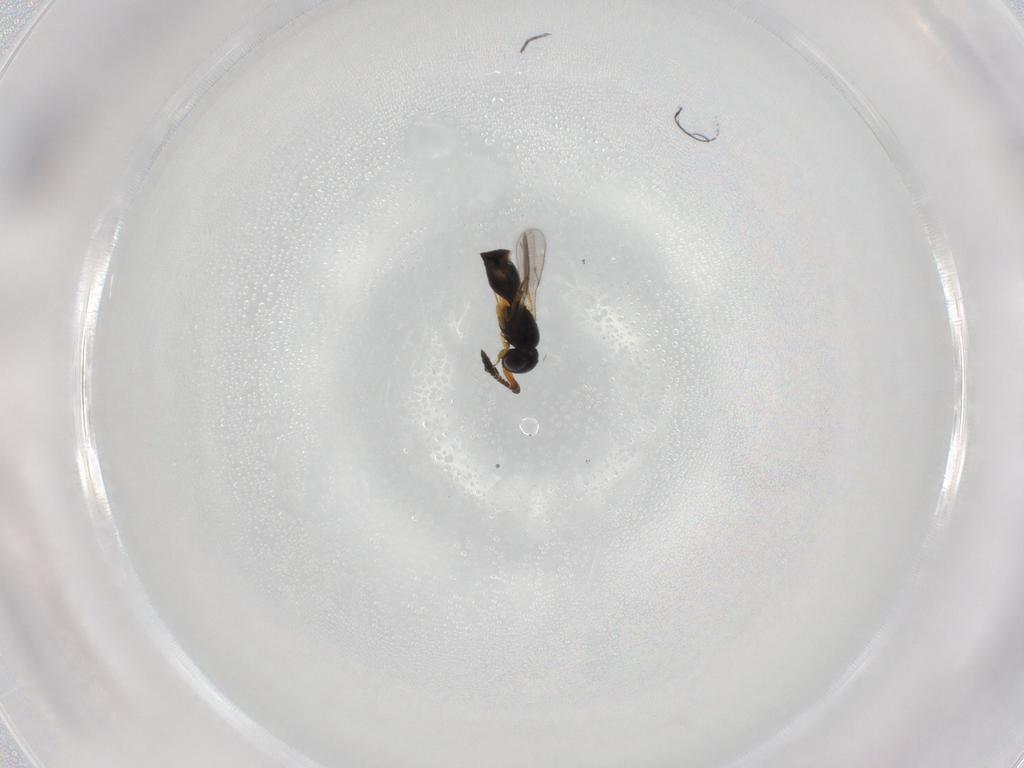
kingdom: Animalia
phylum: Arthropoda
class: Insecta
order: Hymenoptera
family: Scelionidae
